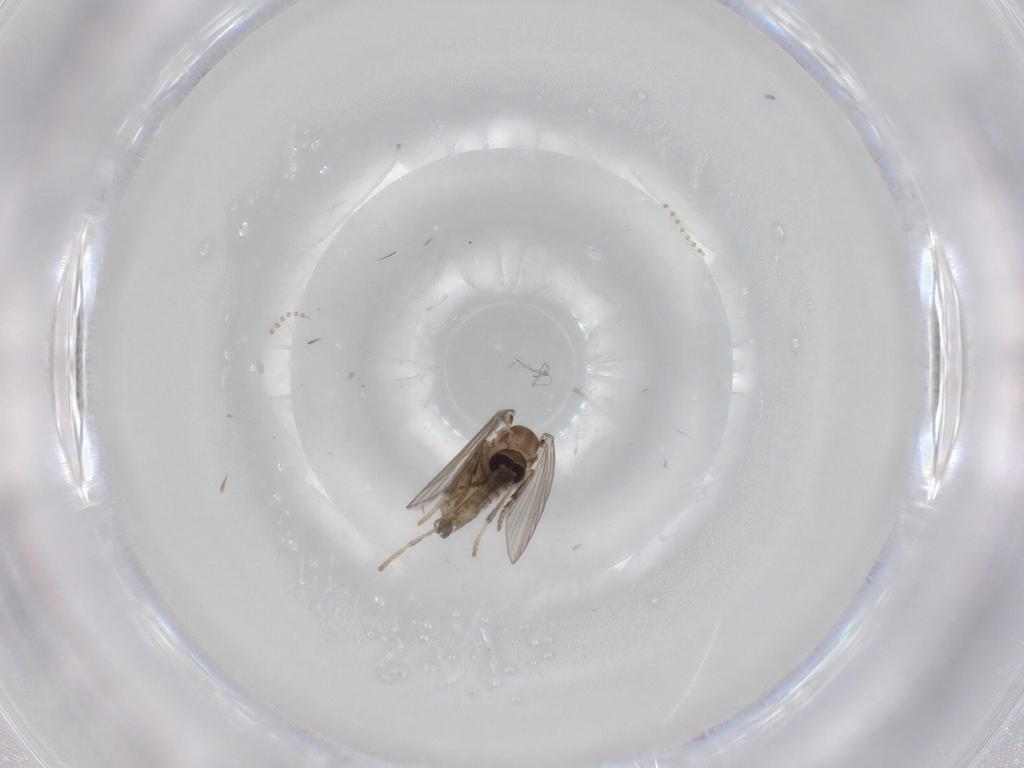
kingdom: Animalia
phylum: Arthropoda
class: Insecta
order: Diptera
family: Psychodidae
